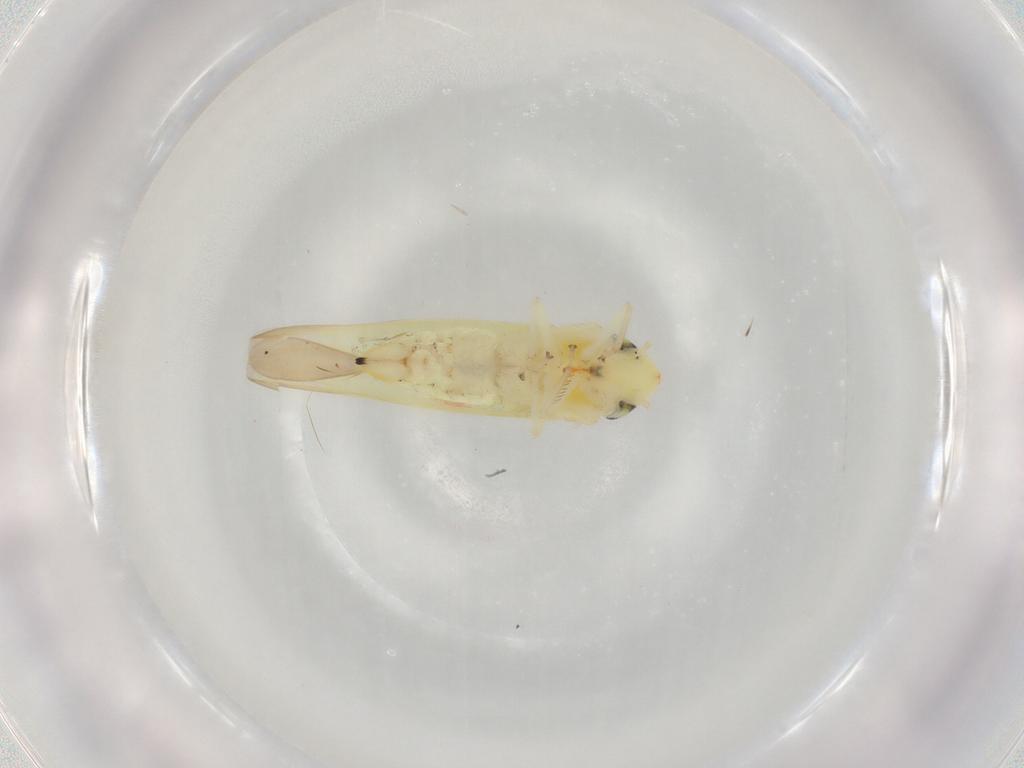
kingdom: Animalia
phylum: Arthropoda
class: Insecta
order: Hemiptera
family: Cicadellidae
